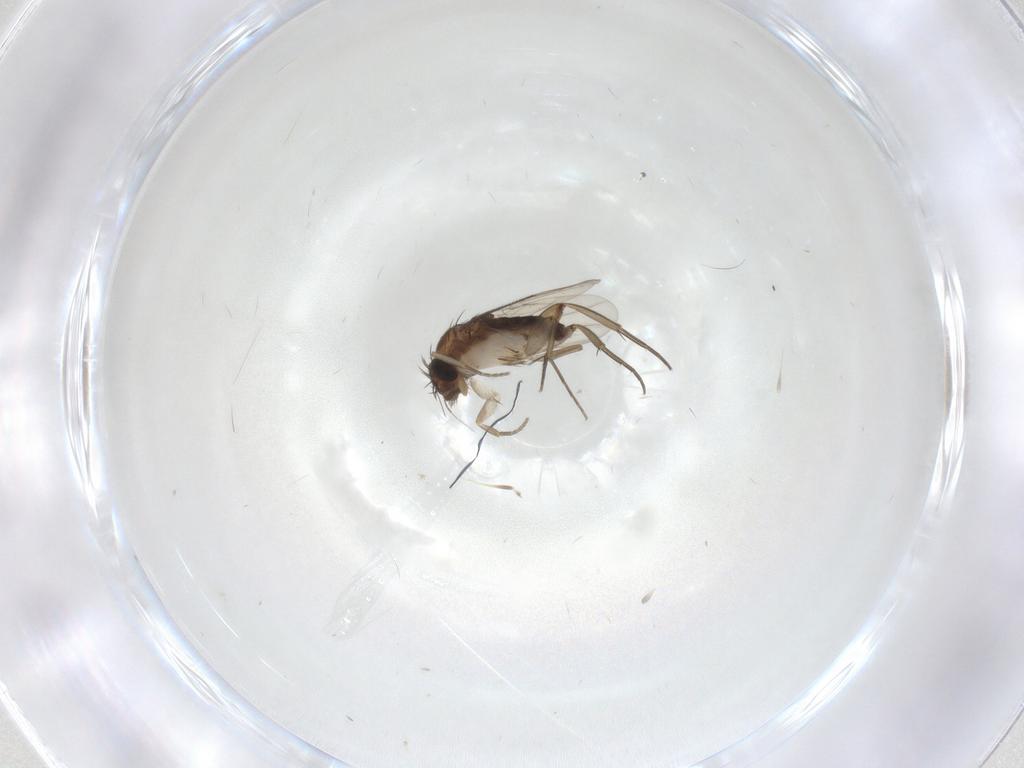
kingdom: Animalia
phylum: Arthropoda
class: Insecta
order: Diptera
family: Phoridae
